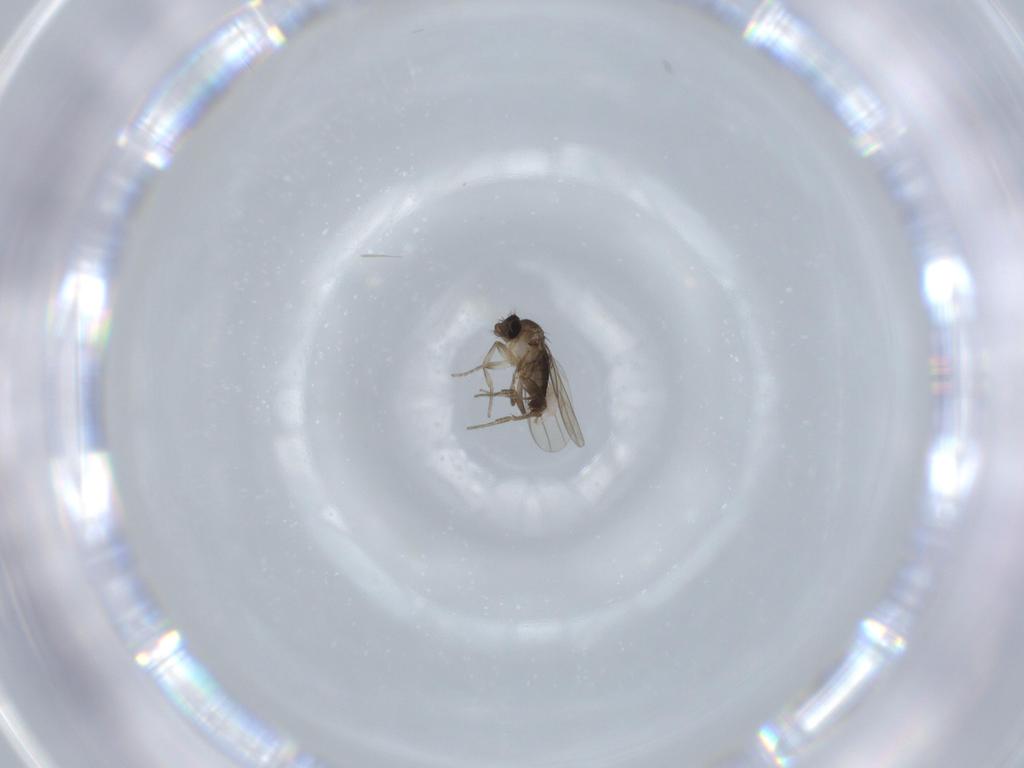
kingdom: Animalia
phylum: Arthropoda
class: Insecta
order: Diptera
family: Phoridae
